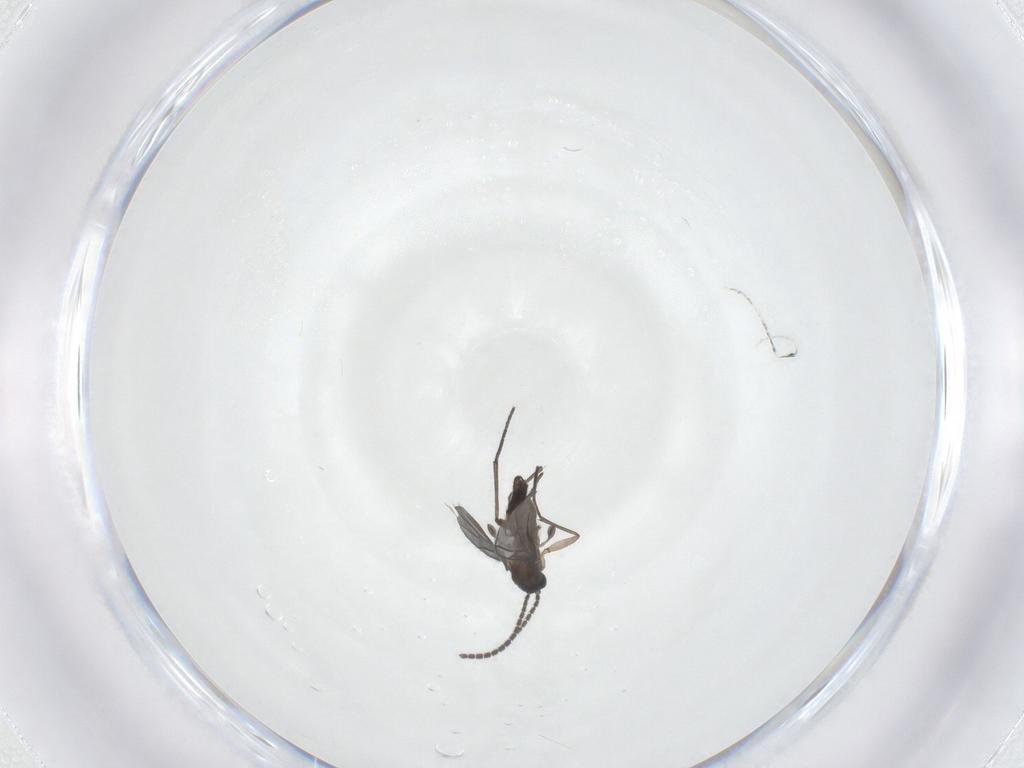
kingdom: Animalia
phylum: Arthropoda
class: Insecta
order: Diptera
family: Sciaridae
